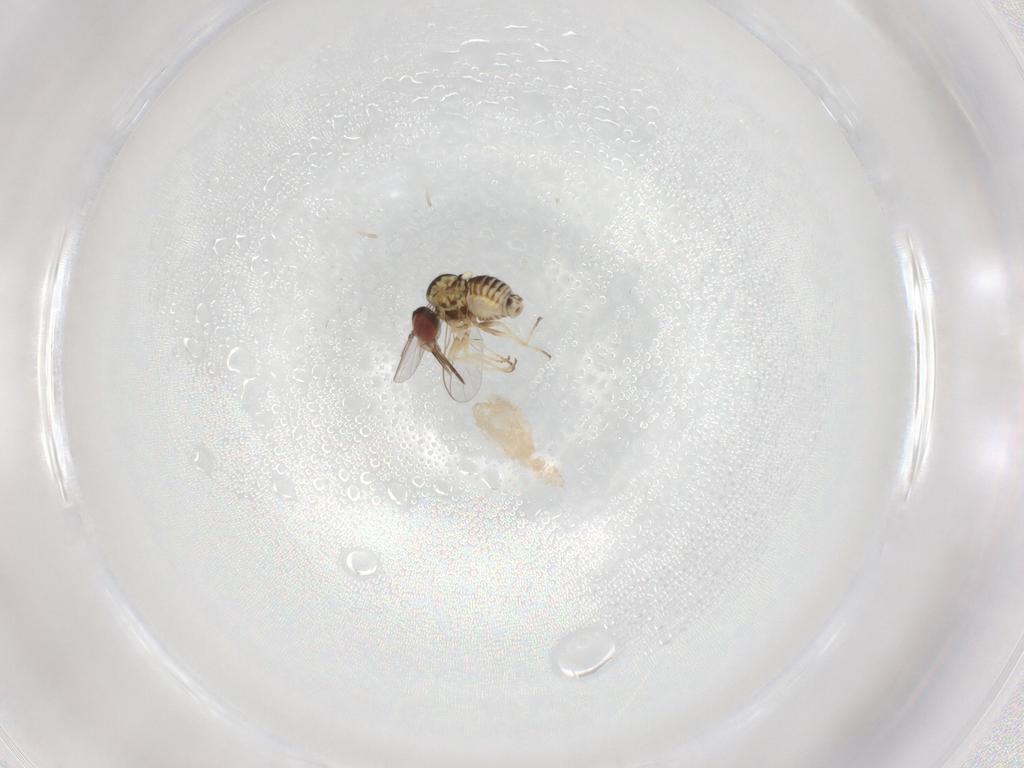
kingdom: Animalia
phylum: Arthropoda
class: Insecta
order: Diptera
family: Bombyliidae
